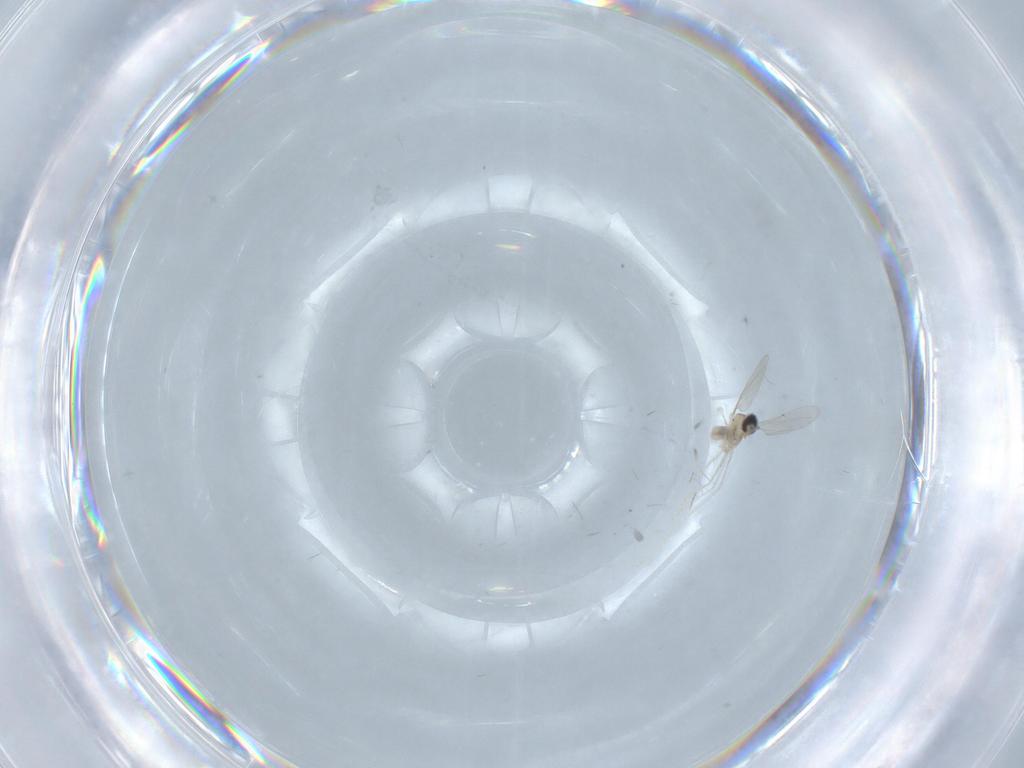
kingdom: Animalia
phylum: Arthropoda
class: Insecta
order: Diptera
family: Cecidomyiidae
